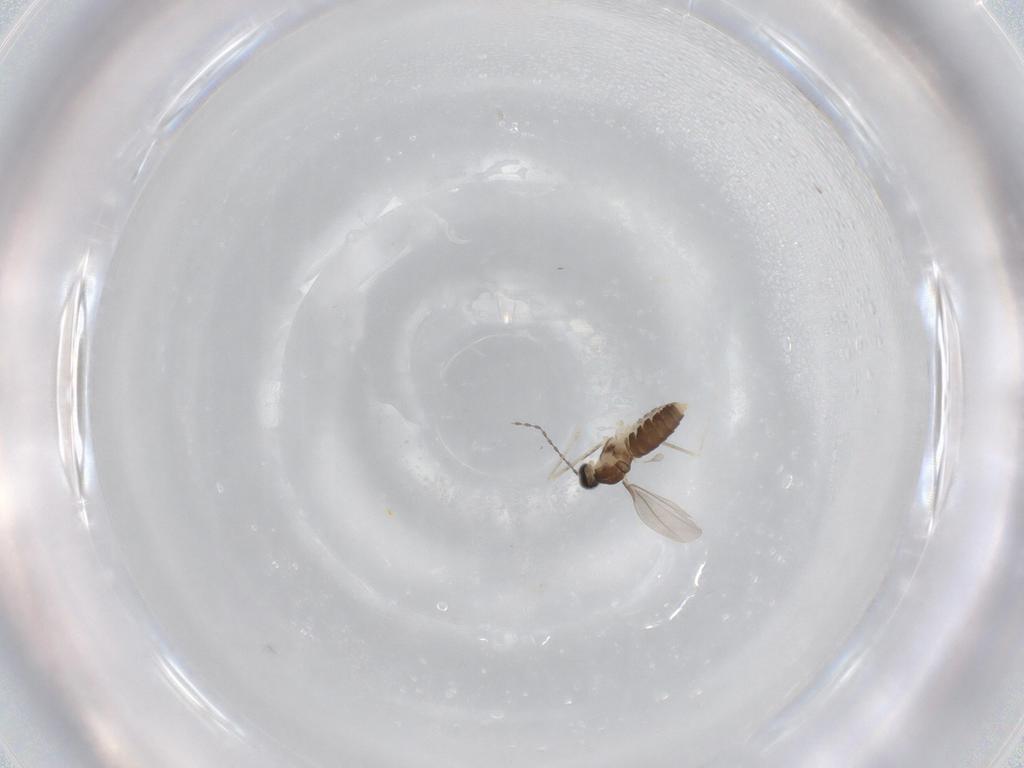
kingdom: Animalia
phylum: Arthropoda
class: Insecta
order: Diptera
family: Cecidomyiidae
